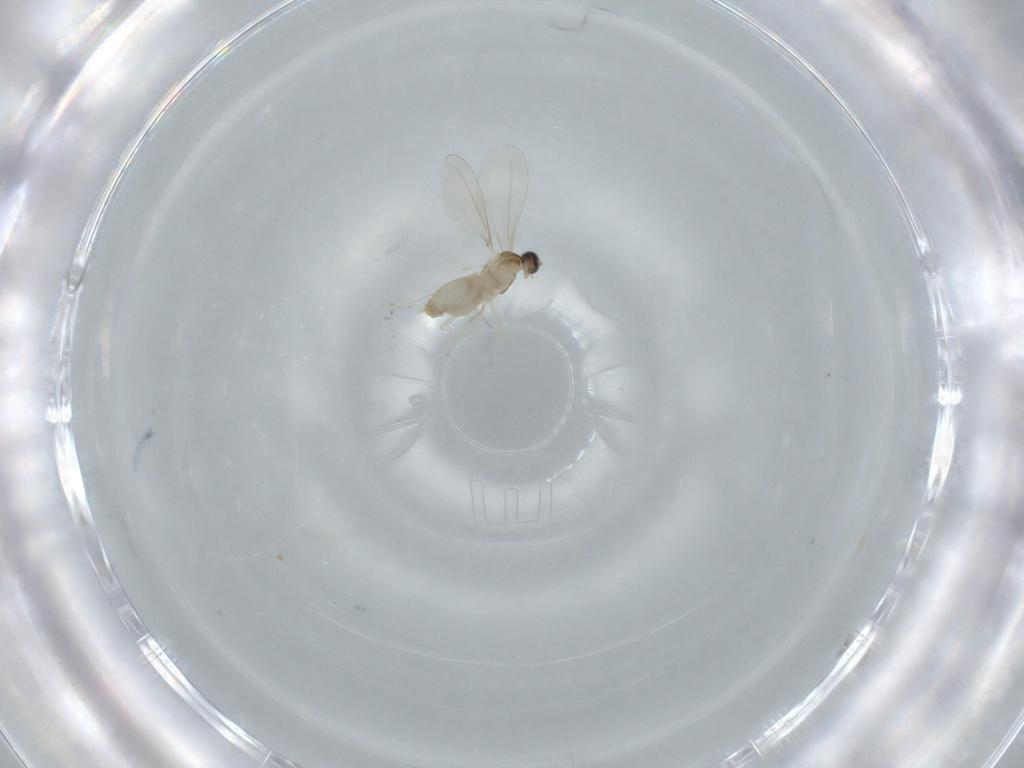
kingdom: Animalia
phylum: Arthropoda
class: Insecta
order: Diptera
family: Cecidomyiidae
